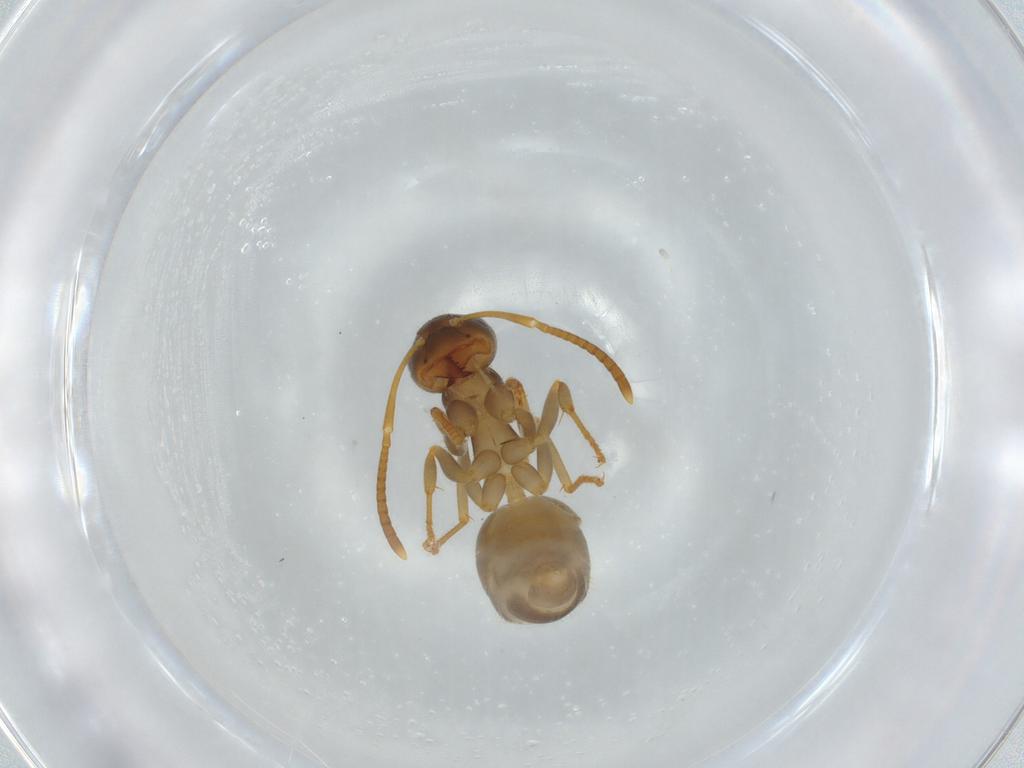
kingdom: Animalia
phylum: Arthropoda
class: Insecta
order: Hymenoptera
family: Formicidae
